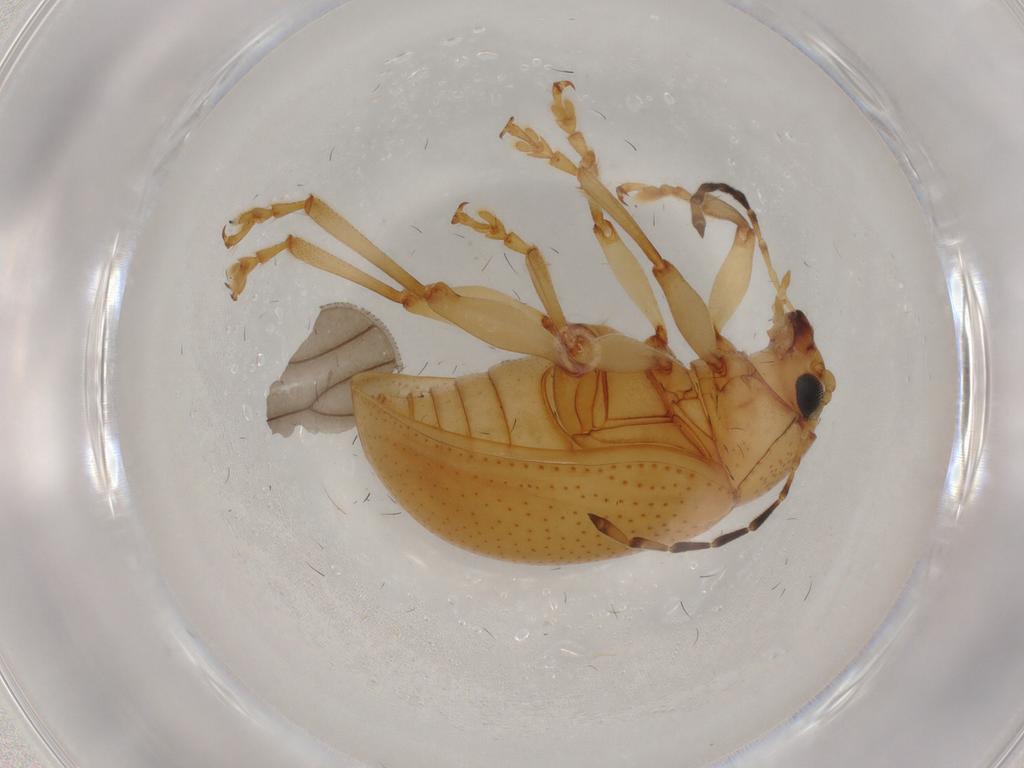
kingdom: Animalia
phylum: Arthropoda
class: Insecta
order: Coleoptera
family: Chrysomelidae
